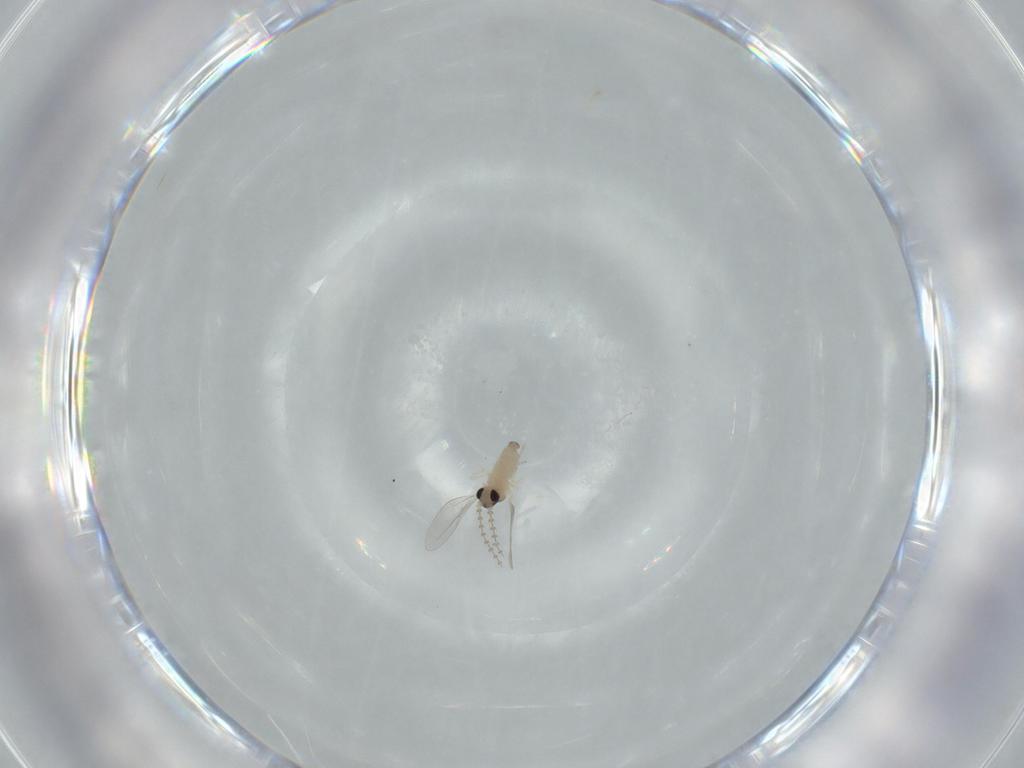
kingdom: Animalia
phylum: Arthropoda
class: Insecta
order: Diptera
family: Cecidomyiidae
